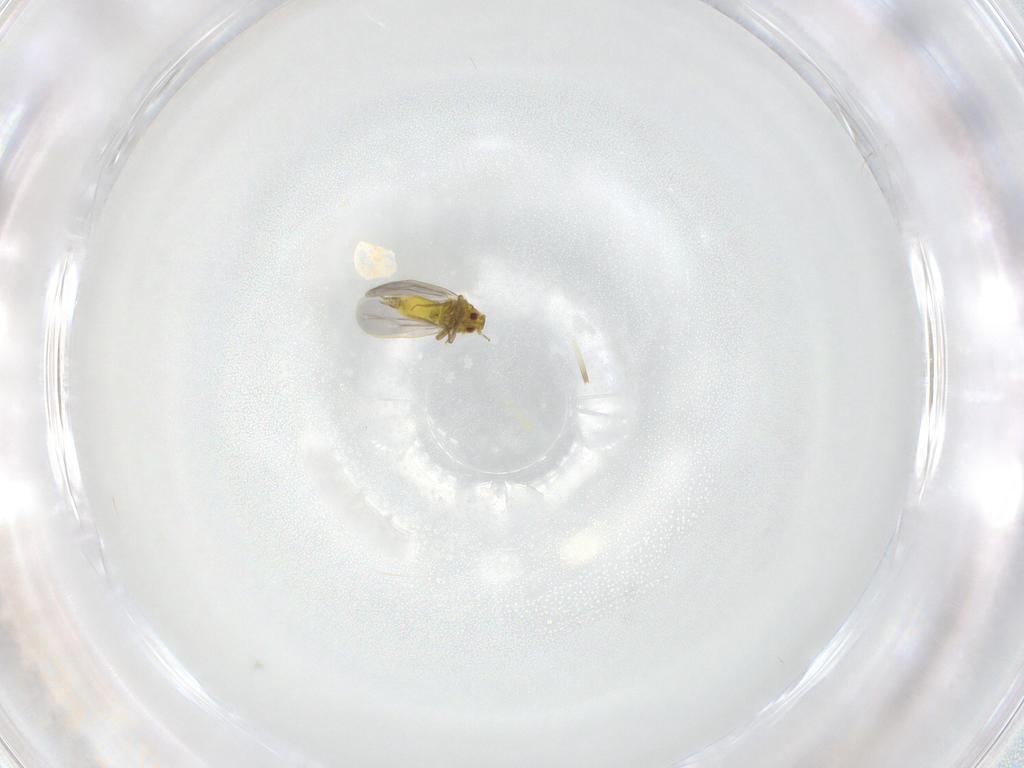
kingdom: Animalia
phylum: Arthropoda
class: Insecta
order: Hemiptera
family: Aleyrodidae
